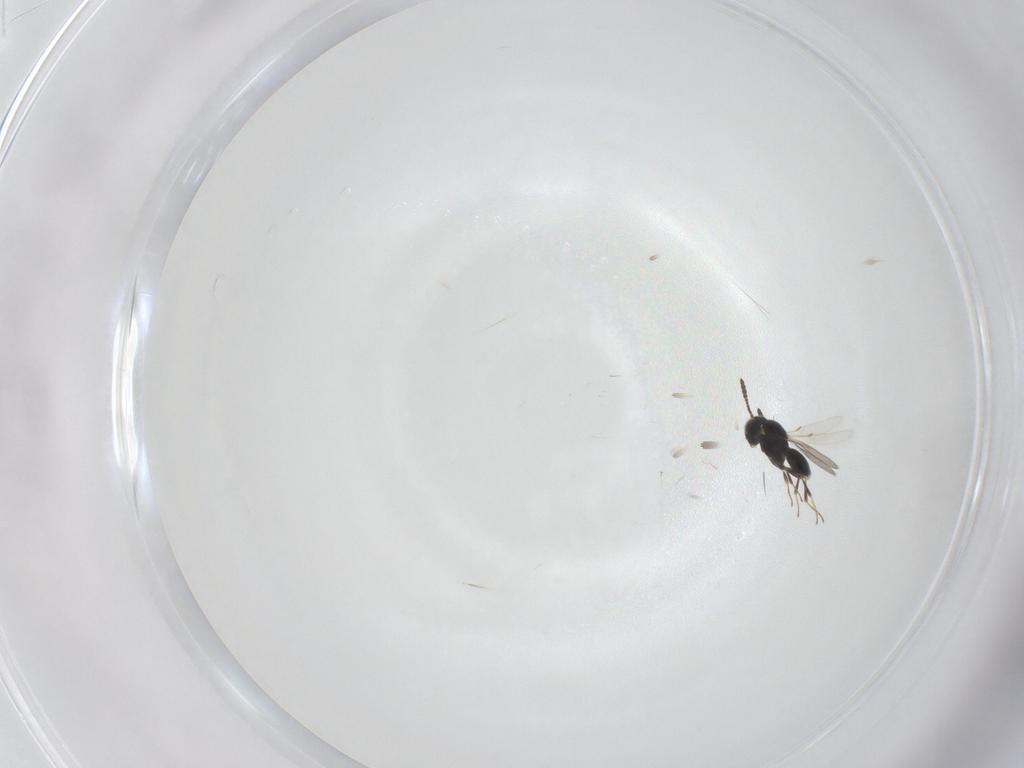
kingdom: Animalia
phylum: Arthropoda
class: Insecta
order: Hymenoptera
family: Scelionidae
